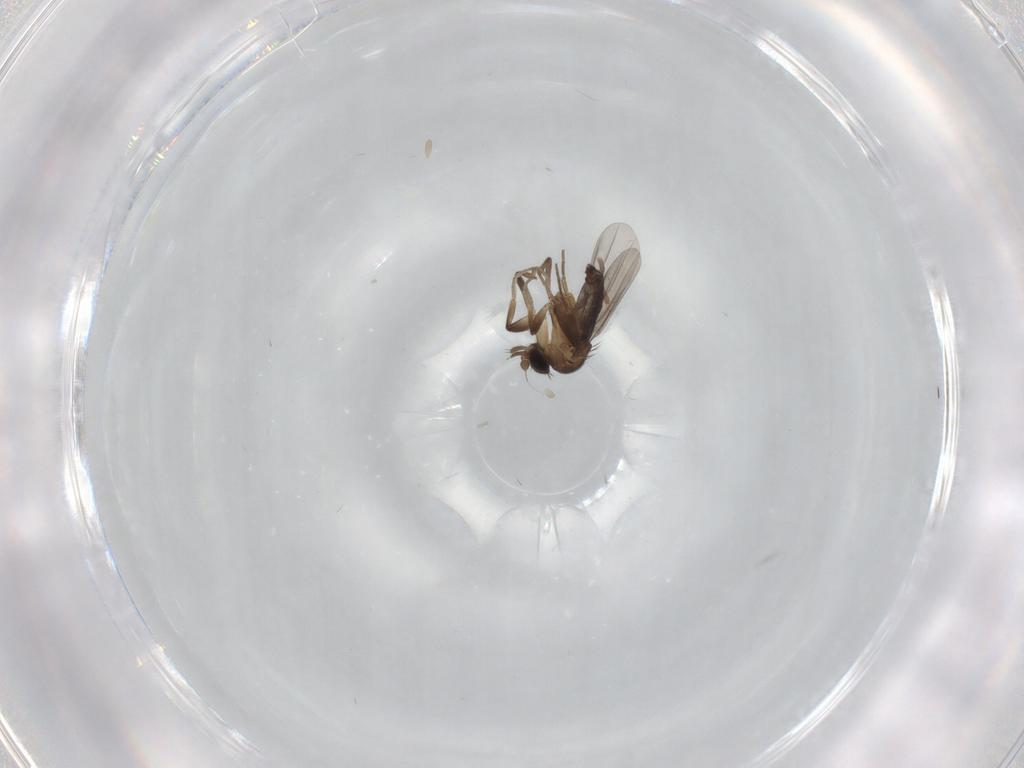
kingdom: Animalia
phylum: Arthropoda
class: Insecta
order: Diptera
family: Phoridae
